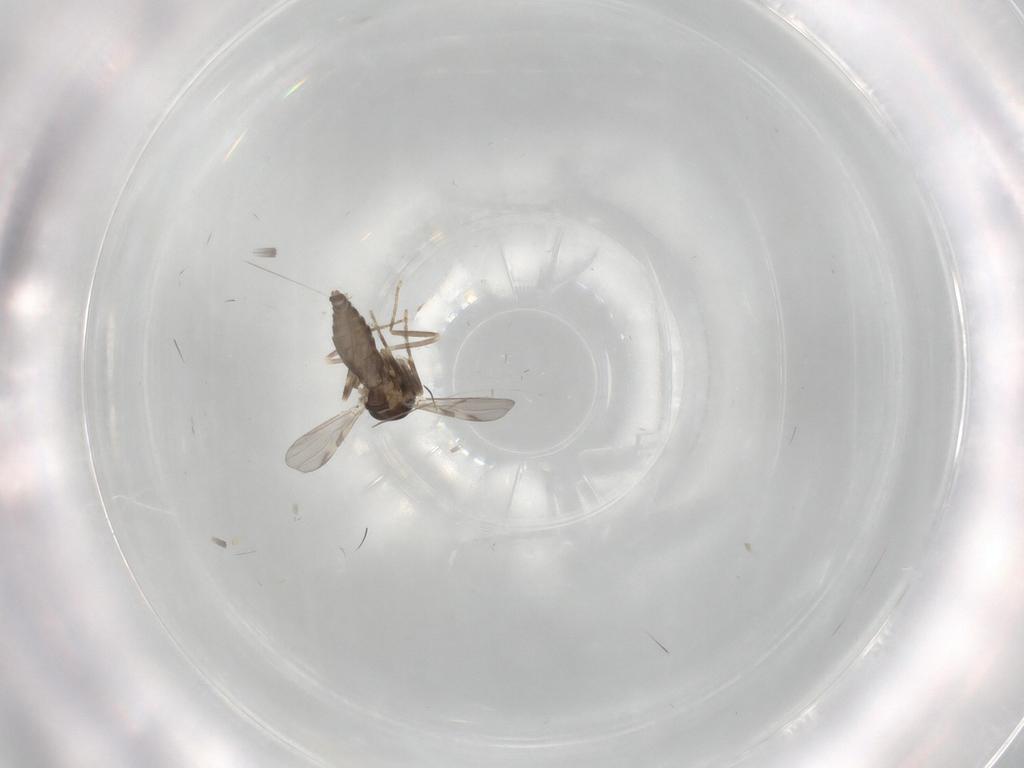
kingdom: Animalia
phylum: Arthropoda
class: Insecta
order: Diptera
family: Ceratopogonidae
